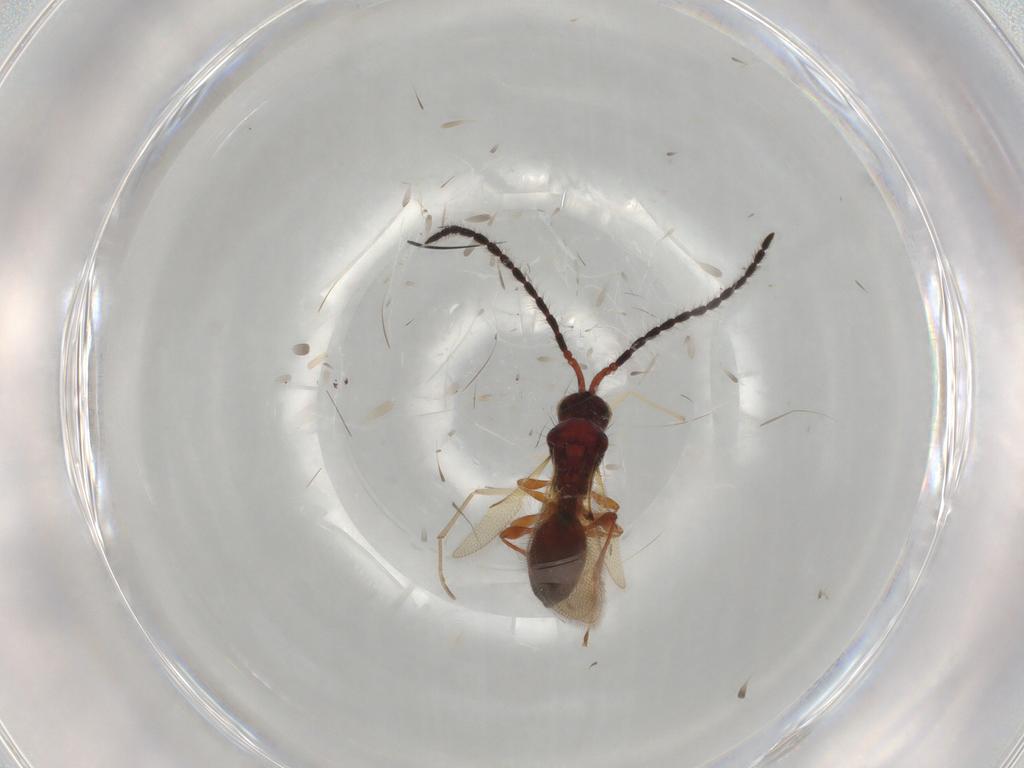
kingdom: Animalia
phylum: Arthropoda
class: Insecta
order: Hymenoptera
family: Diapriidae
